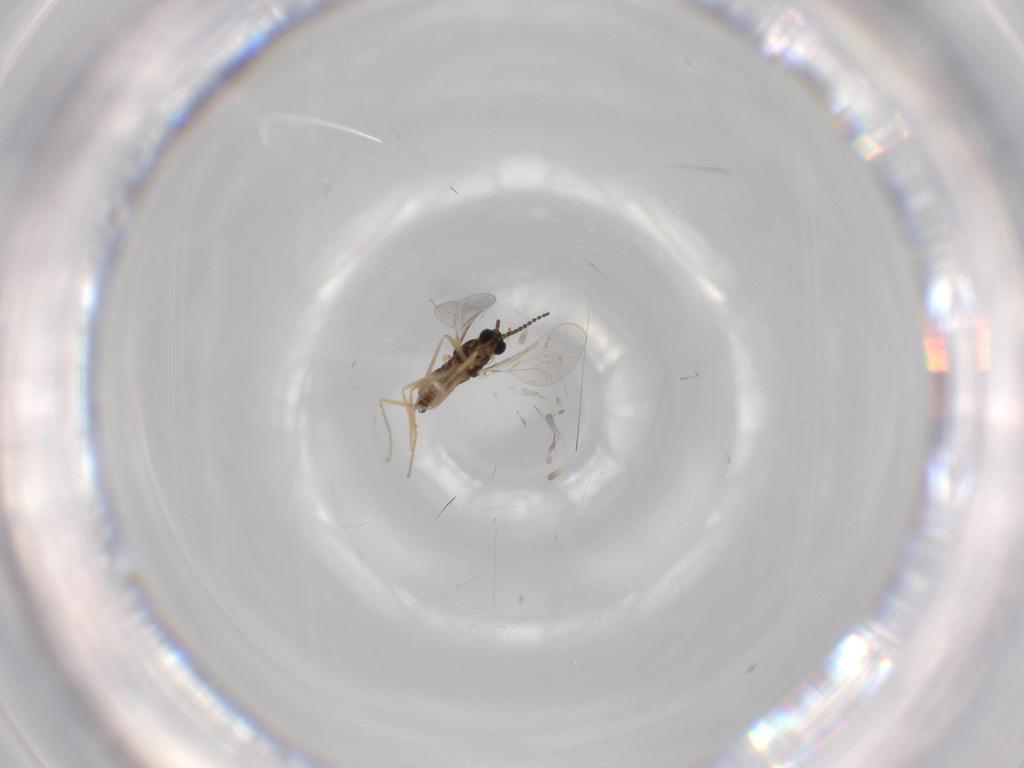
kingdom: Animalia
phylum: Arthropoda
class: Insecta
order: Diptera
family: Cecidomyiidae
